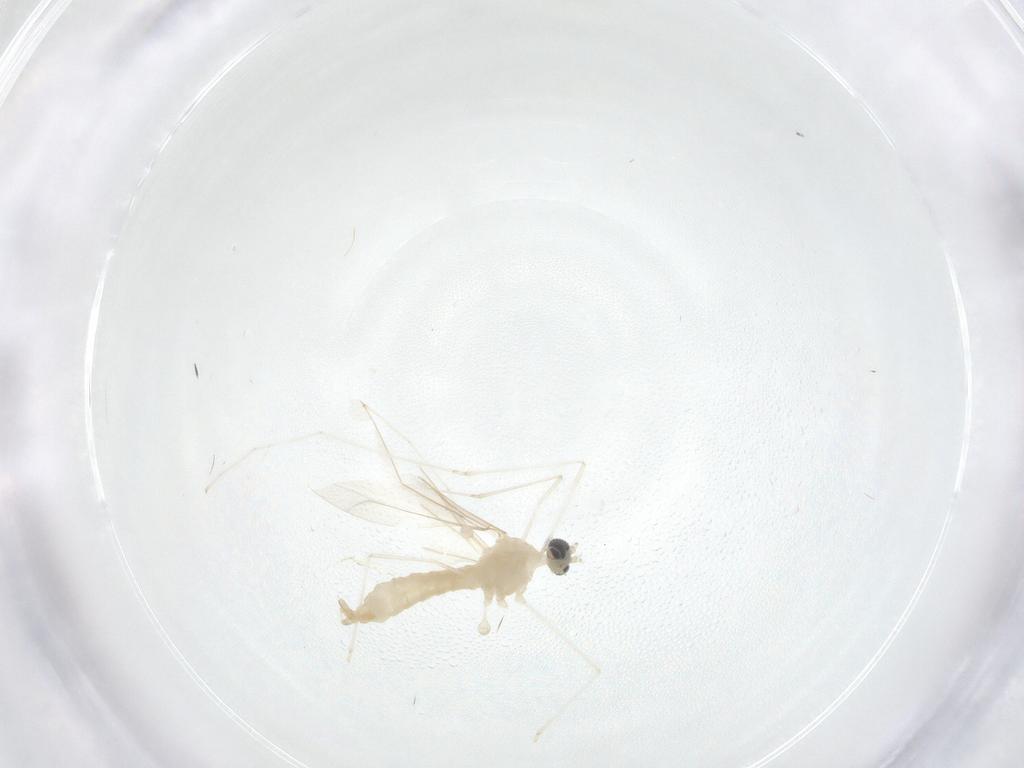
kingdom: Animalia
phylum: Arthropoda
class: Insecta
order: Diptera
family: Cecidomyiidae
